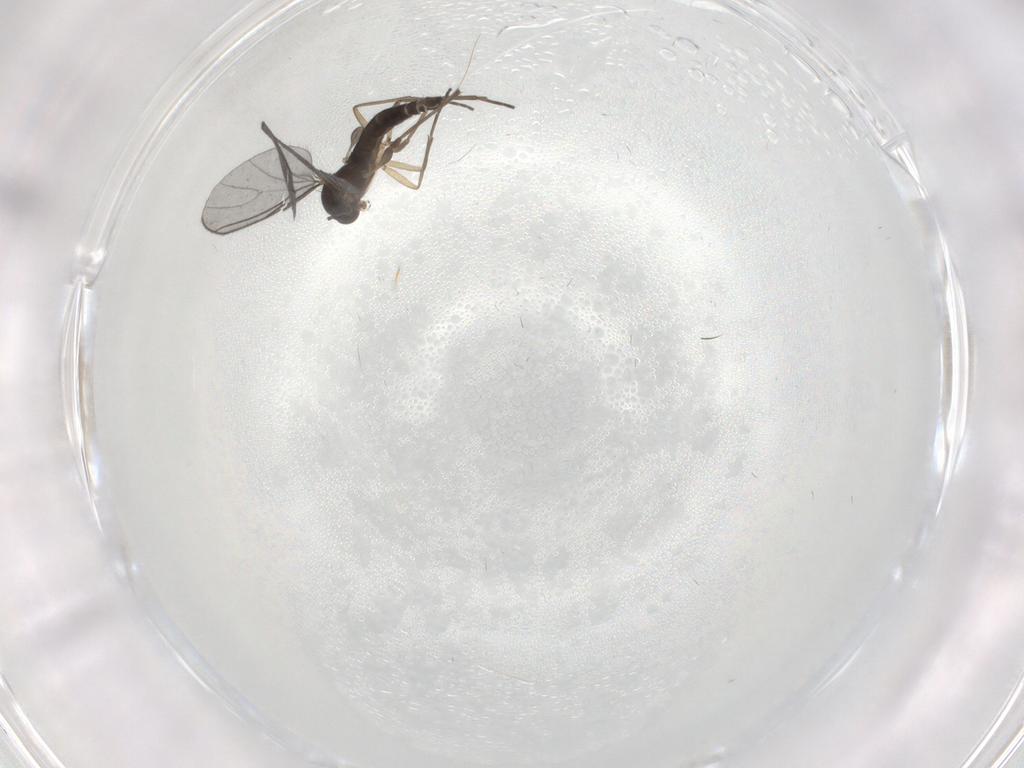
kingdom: Animalia
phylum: Arthropoda
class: Insecta
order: Diptera
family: Sciaridae
